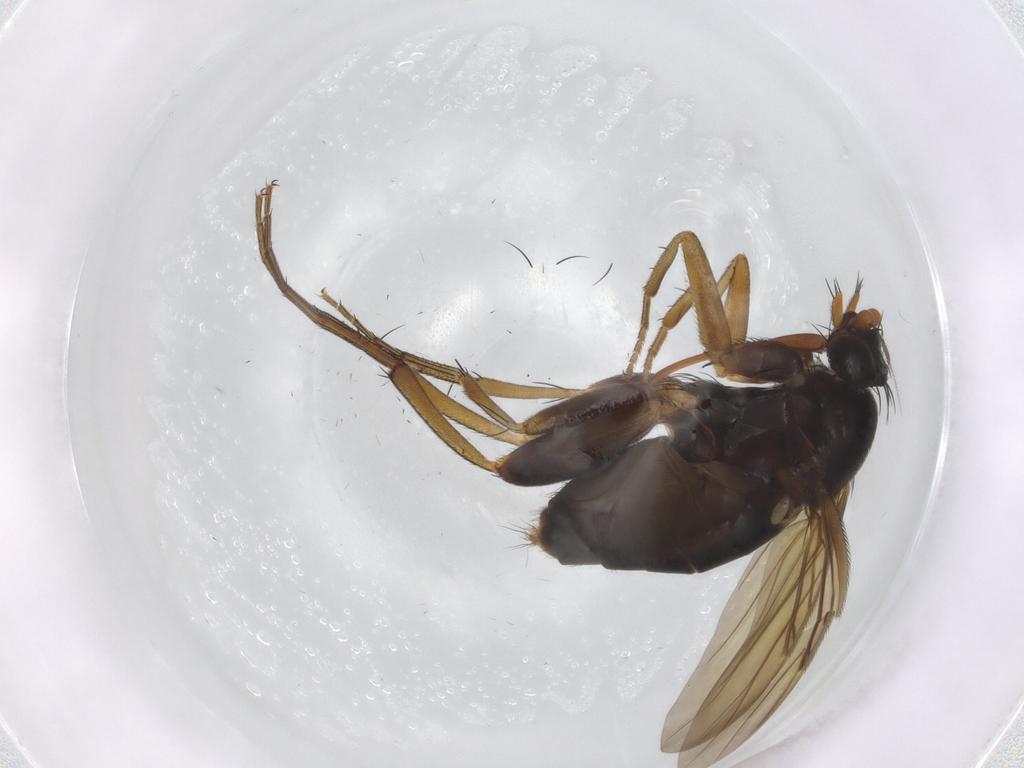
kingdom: Animalia
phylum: Arthropoda
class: Insecta
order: Diptera
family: Phoridae
